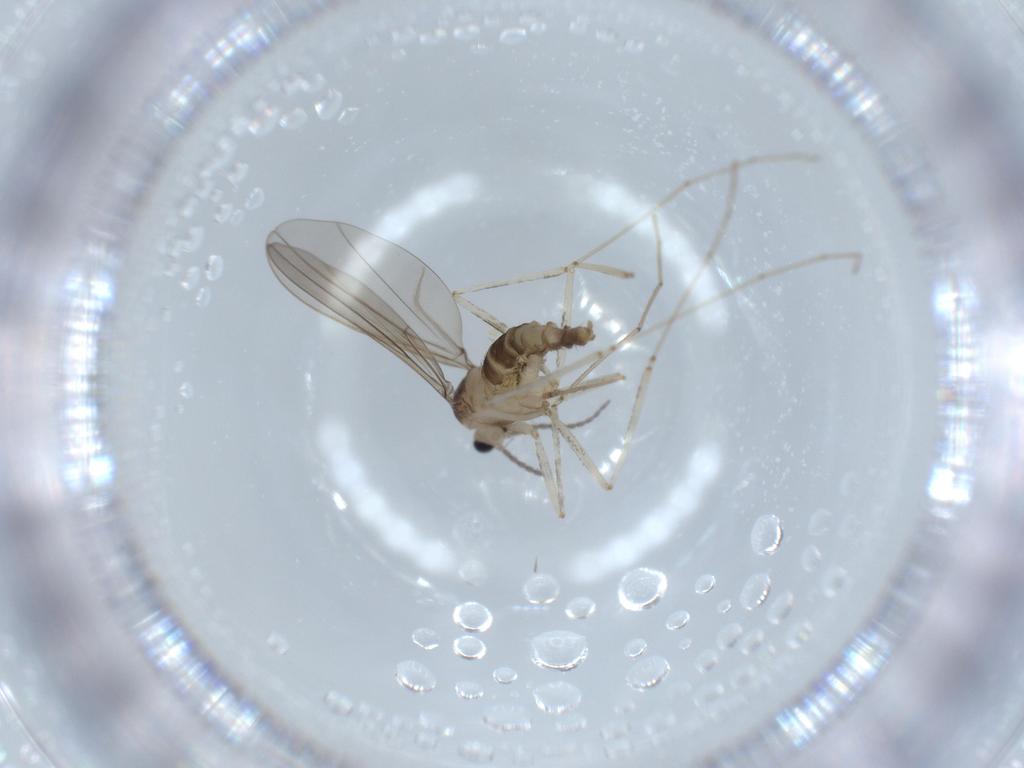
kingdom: Animalia
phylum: Arthropoda
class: Insecta
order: Diptera
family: Cecidomyiidae
